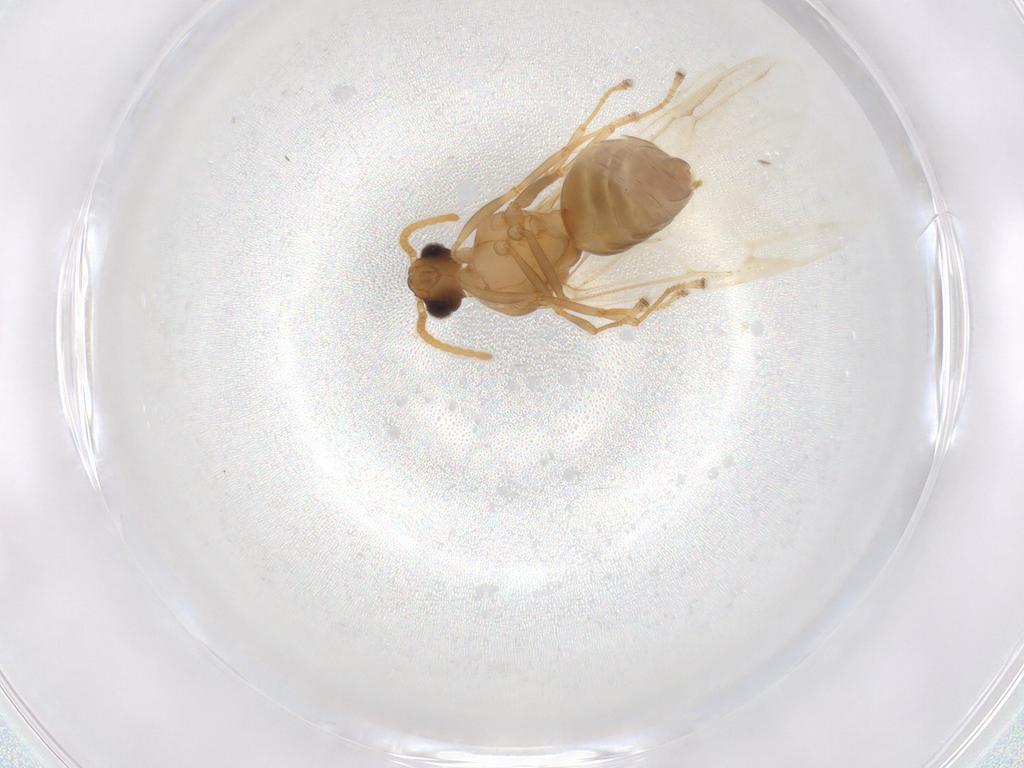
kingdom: Animalia
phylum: Arthropoda
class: Insecta
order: Hymenoptera
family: Formicidae
